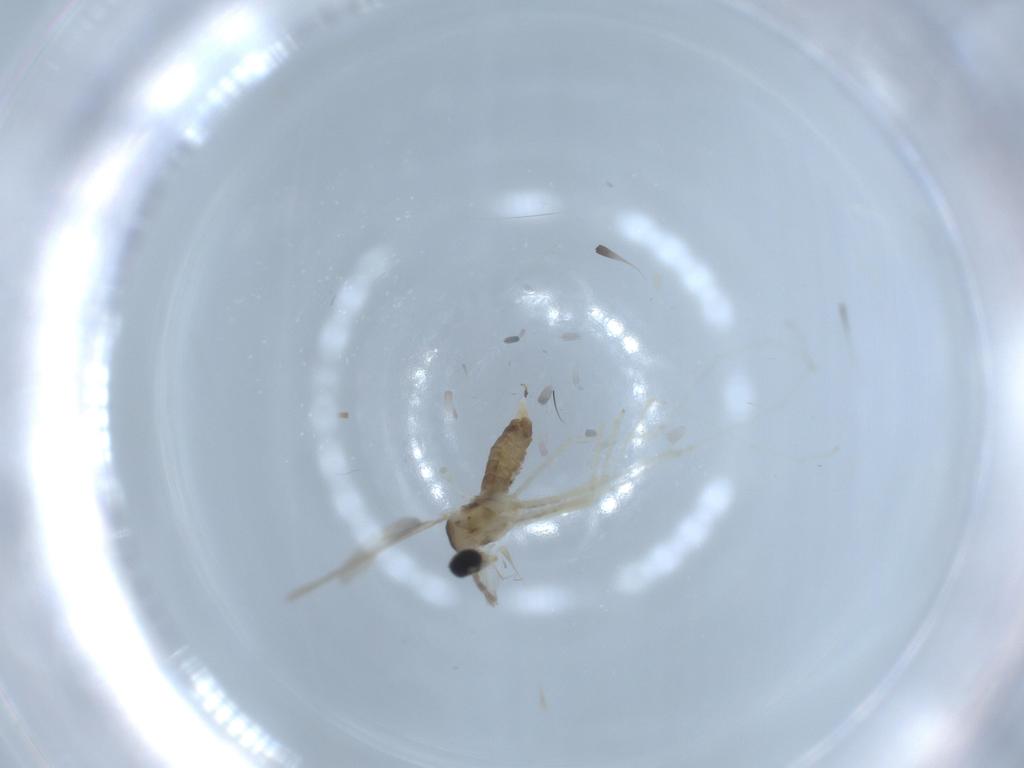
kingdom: Animalia
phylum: Arthropoda
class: Insecta
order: Diptera
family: Cecidomyiidae
